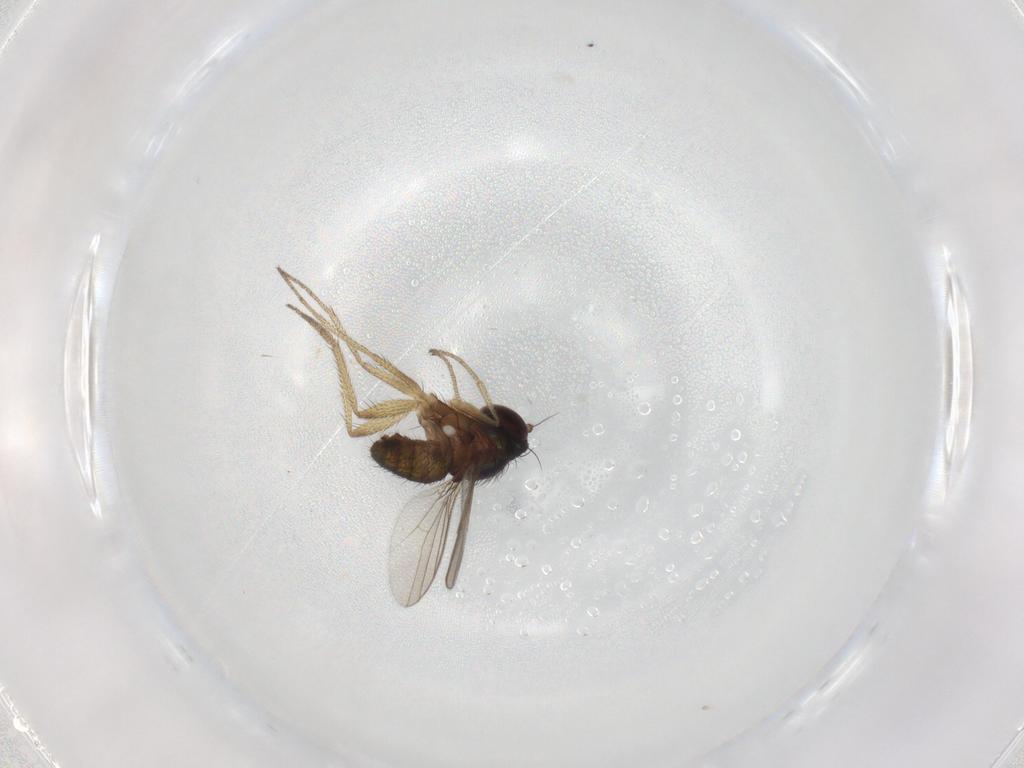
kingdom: Animalia
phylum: Arthropoda
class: Insecta
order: Diptera
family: Dolichopodidae
